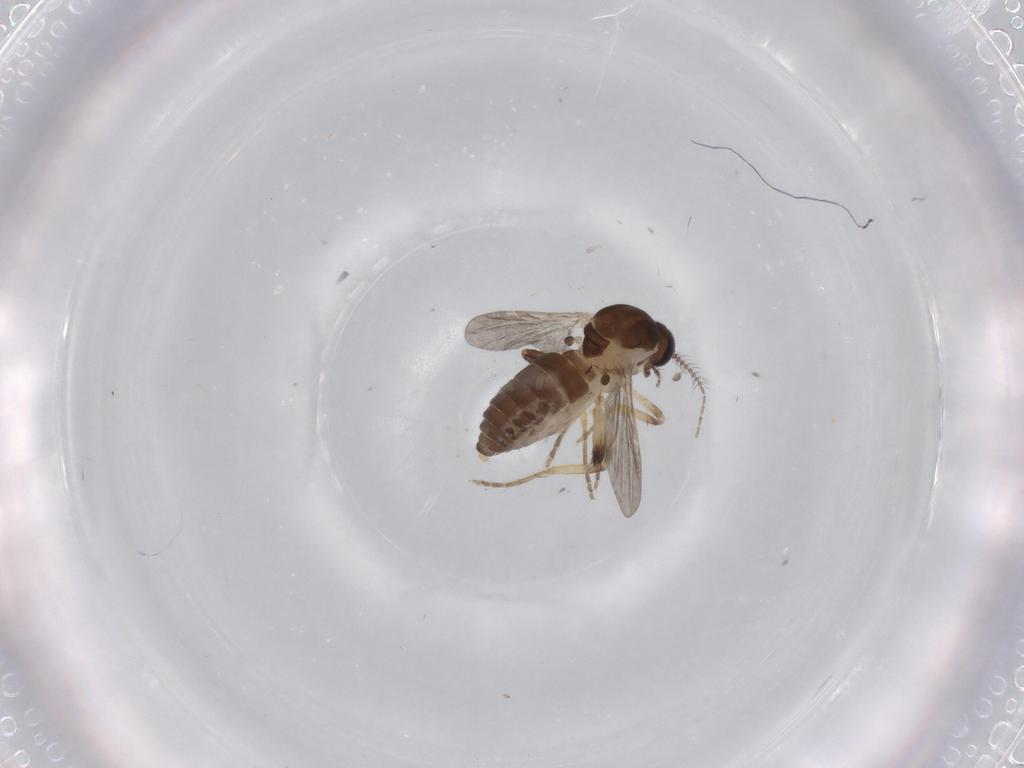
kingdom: Animalia
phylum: Arthropoda
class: Insecta
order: Diptera
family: Ceratopogonidae
